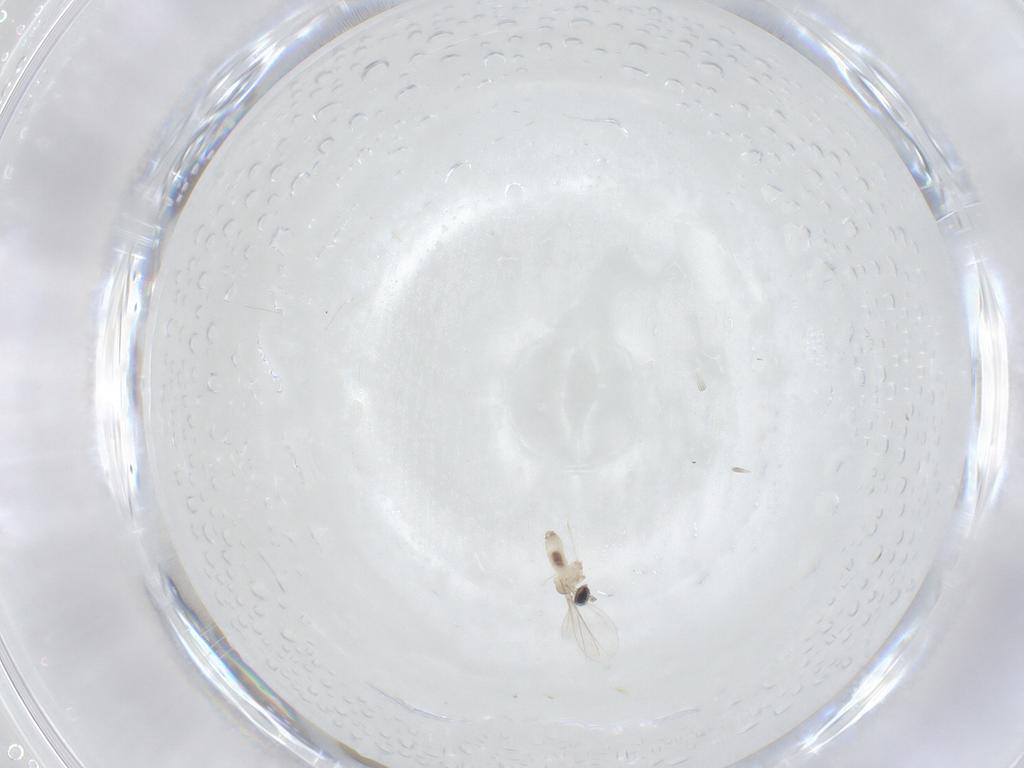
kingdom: Animalia
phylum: Arthropoda
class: Insecta
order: Diptera
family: Cecidomyiidae
